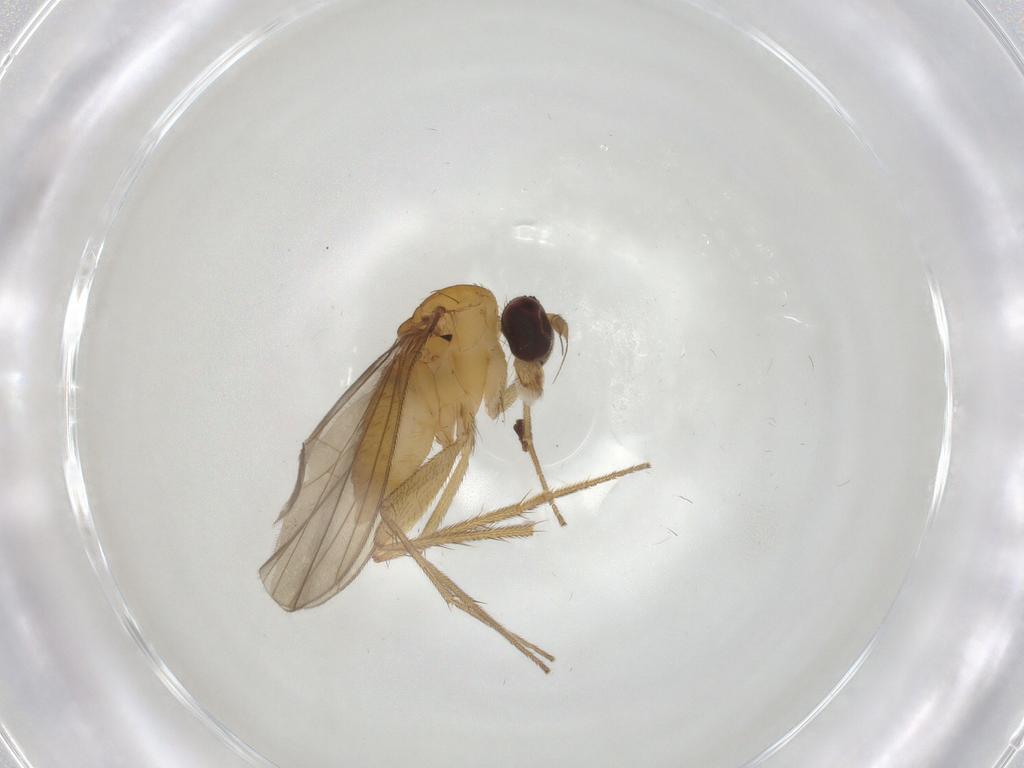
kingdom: Animalia
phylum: Arthropoda
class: Insecta
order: Diptera
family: Dolichopodidae
